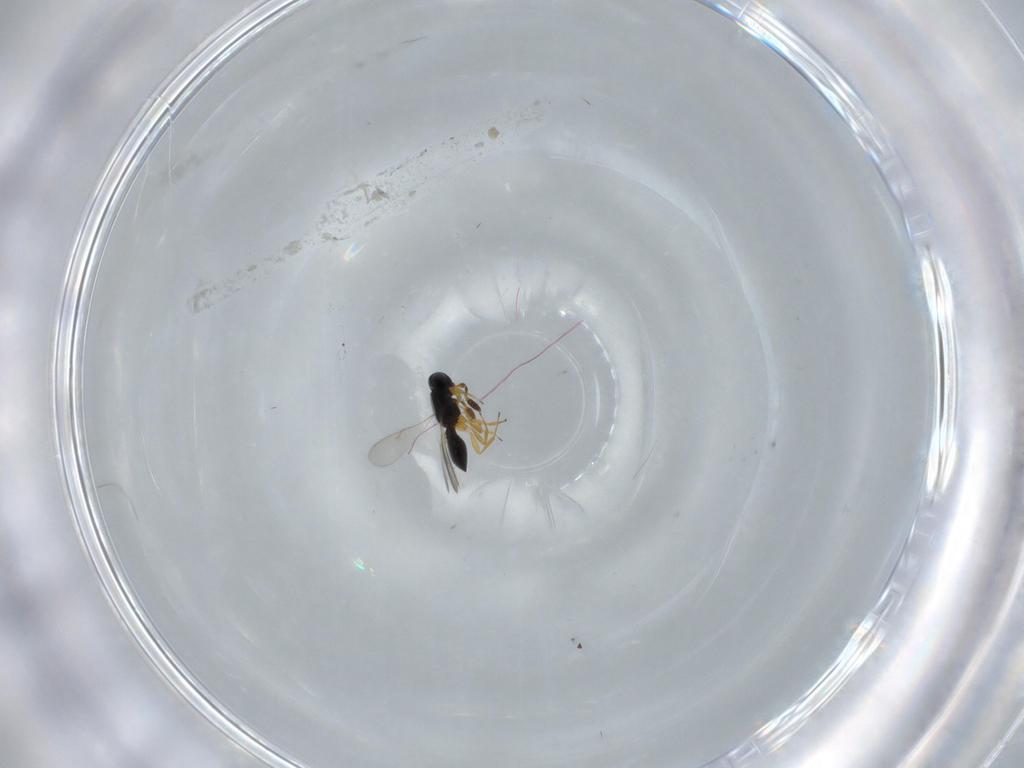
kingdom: Animalia
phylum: Arthropoda
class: Insecta
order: Hymenoptera
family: Scelionidae
